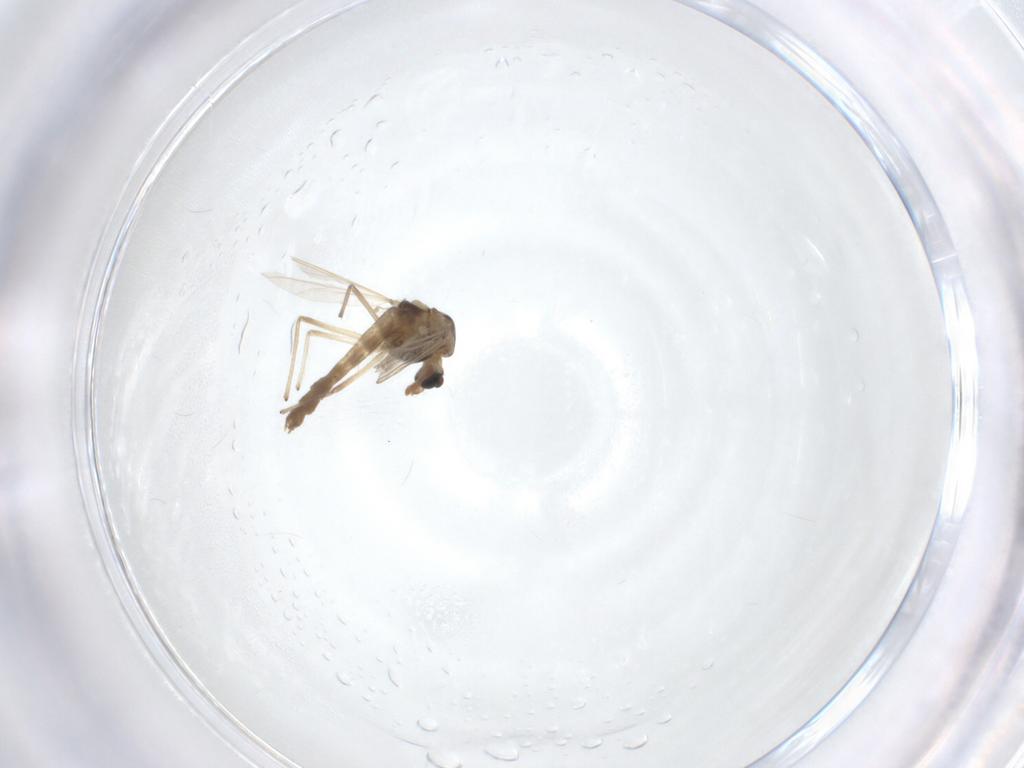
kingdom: Animalia
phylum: Arthropoda
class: Insecta
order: Diptera
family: Chironomidae
